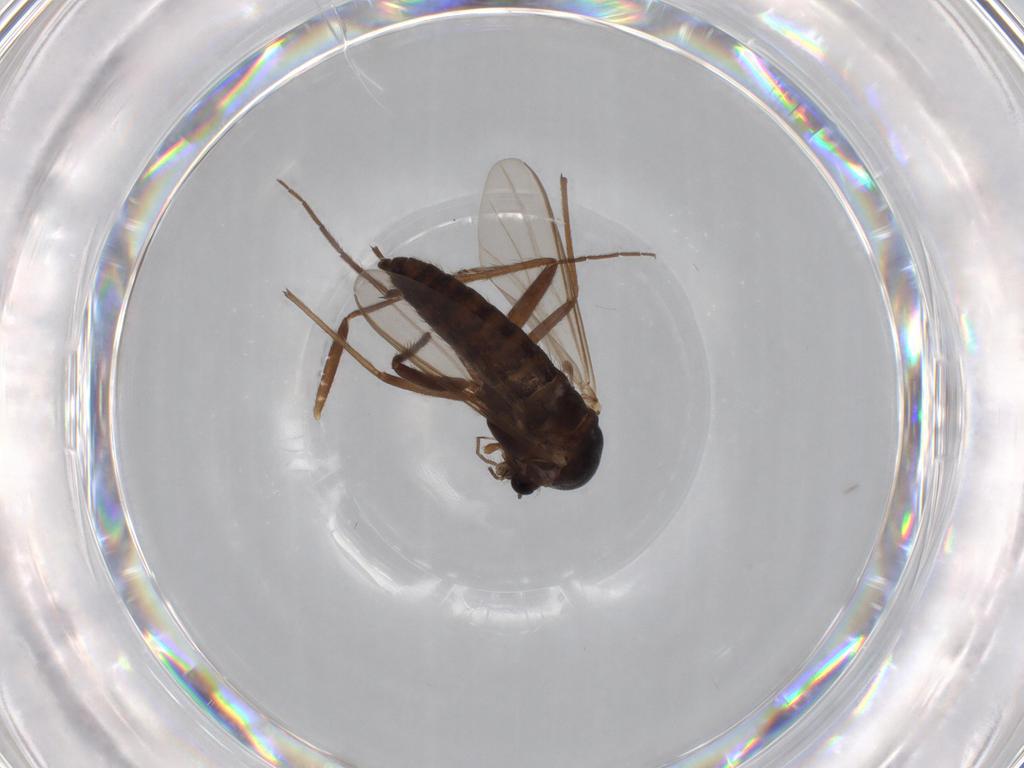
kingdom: Animalia
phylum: Arthropoda
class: Insecta
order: Diptera
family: Chironomidae
